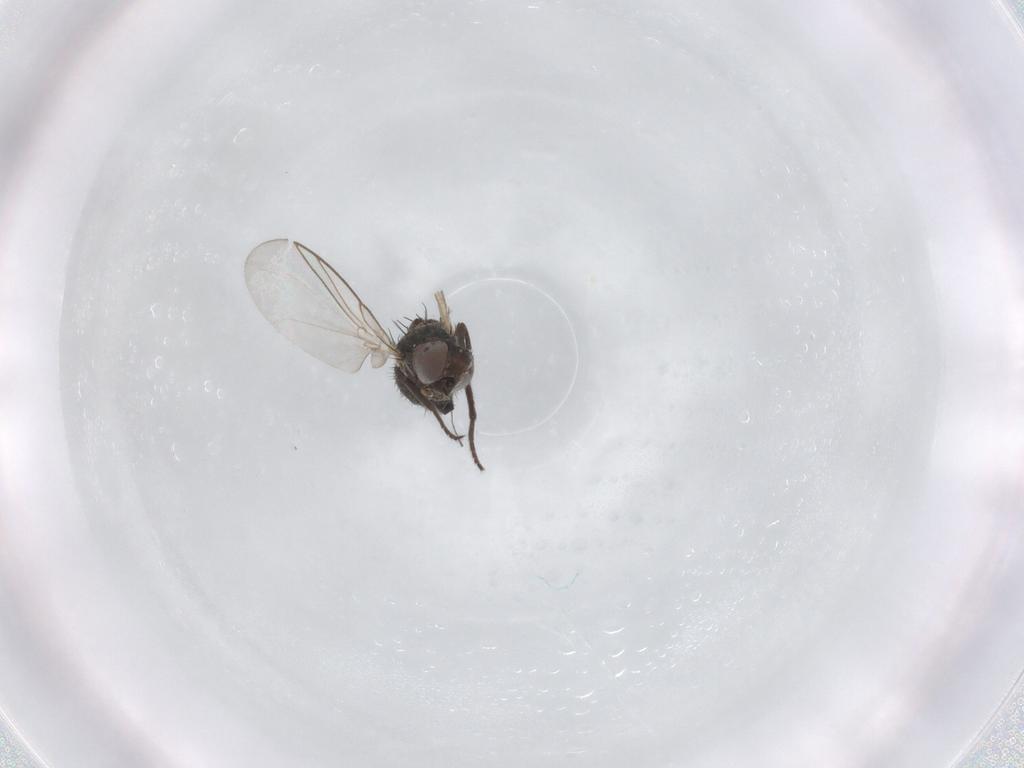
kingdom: Animalia
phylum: Arthropoda
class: Insecta
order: Diptera
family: Agromyzidae
